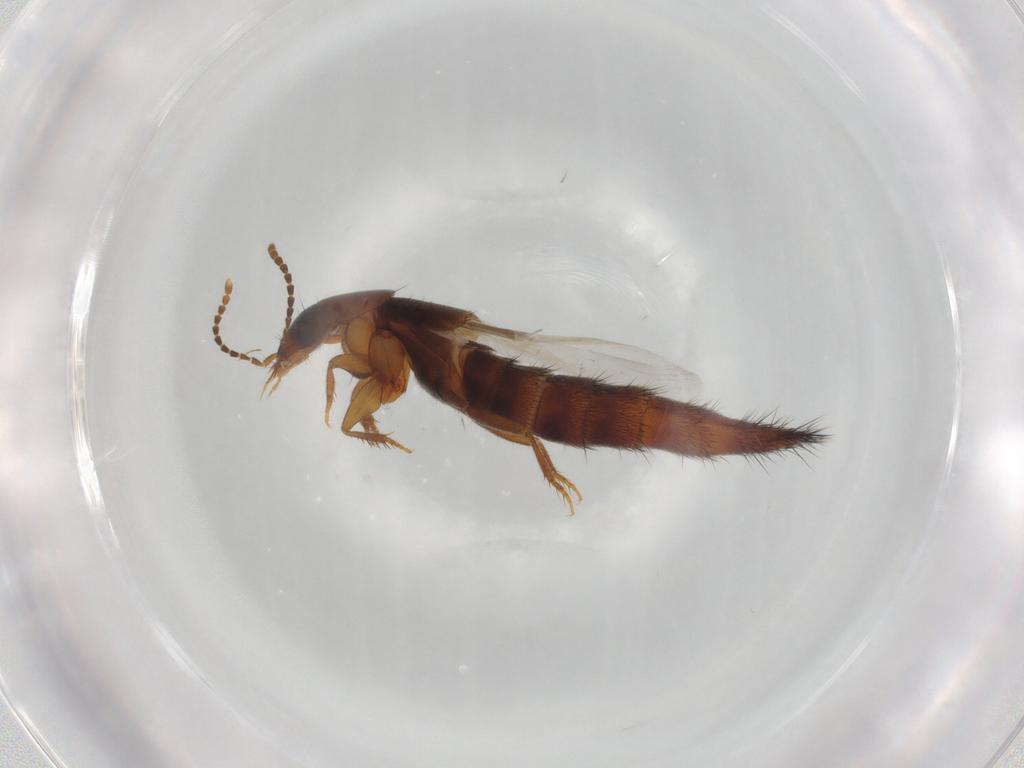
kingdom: Animalia
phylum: Arthropoda
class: Insecta
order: Coleoptera
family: Staphylinidae
